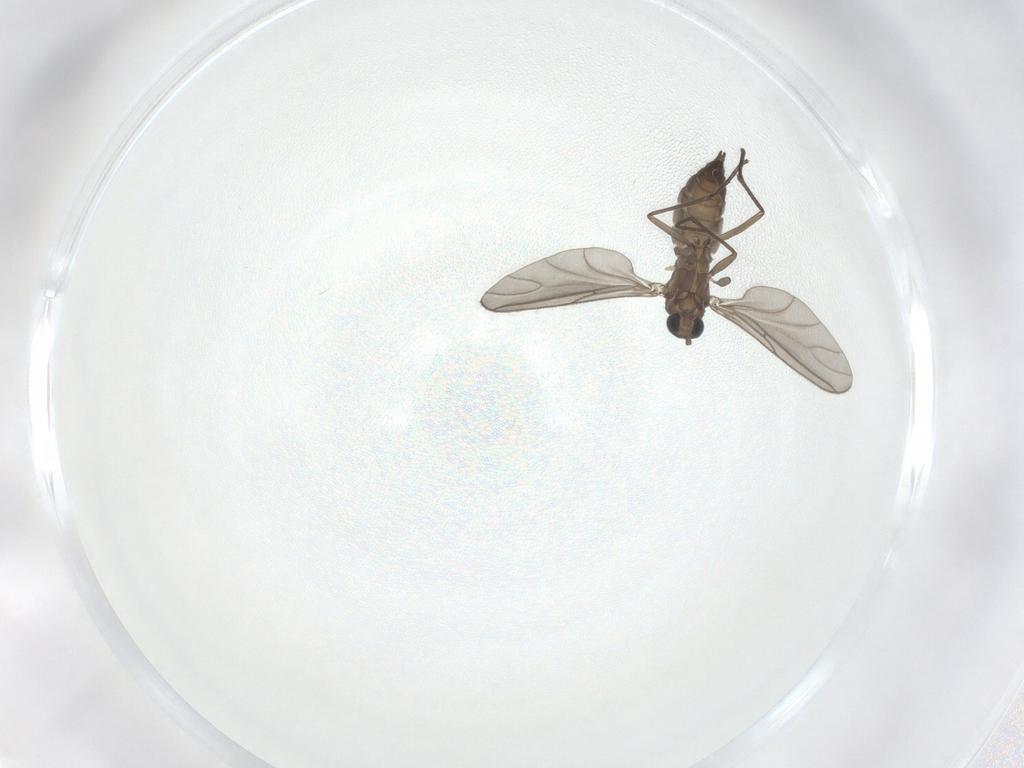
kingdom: Animalia
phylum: Arthropoda
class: Insecta
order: Diptera
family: Sciaridae
